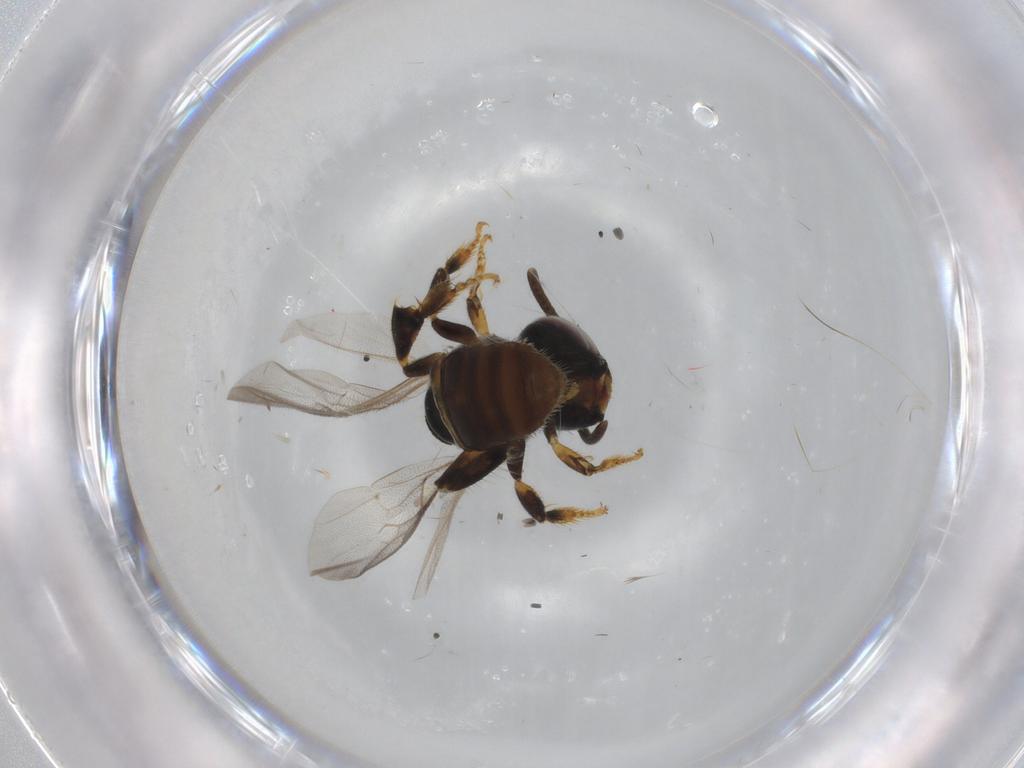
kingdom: Animalia
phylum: Arthropoda
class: Insecta
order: Hymenoptera
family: Apidae
